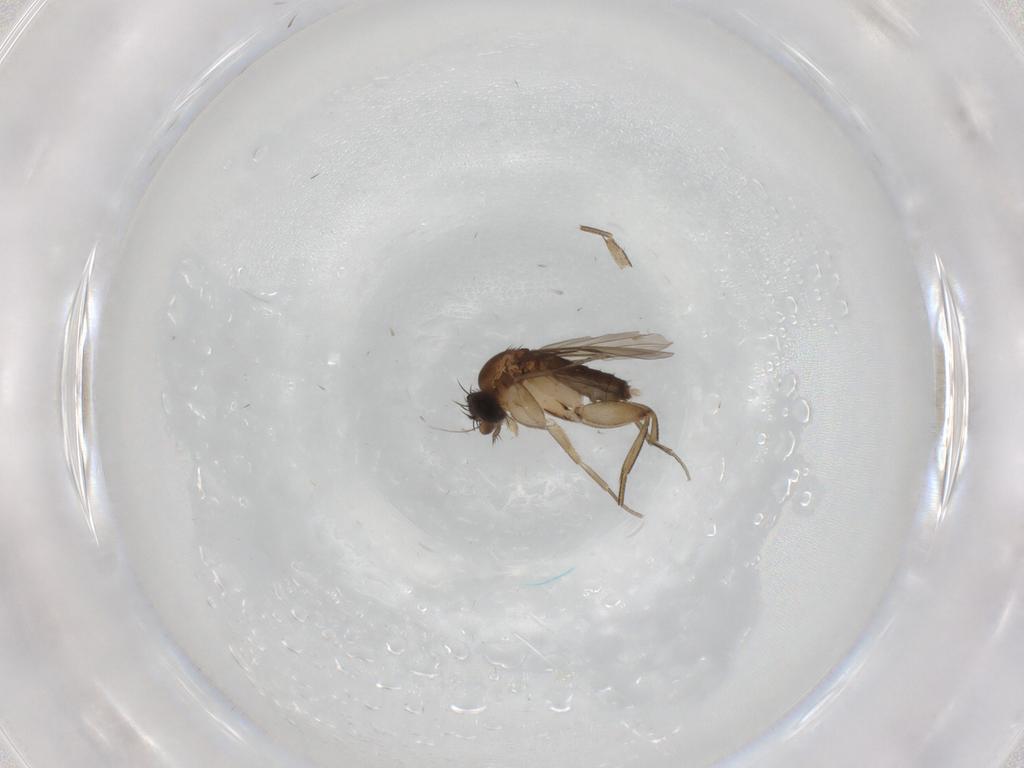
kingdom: Animalia
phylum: Arthropoda
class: Insecta
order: Diptera
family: Phoridae
